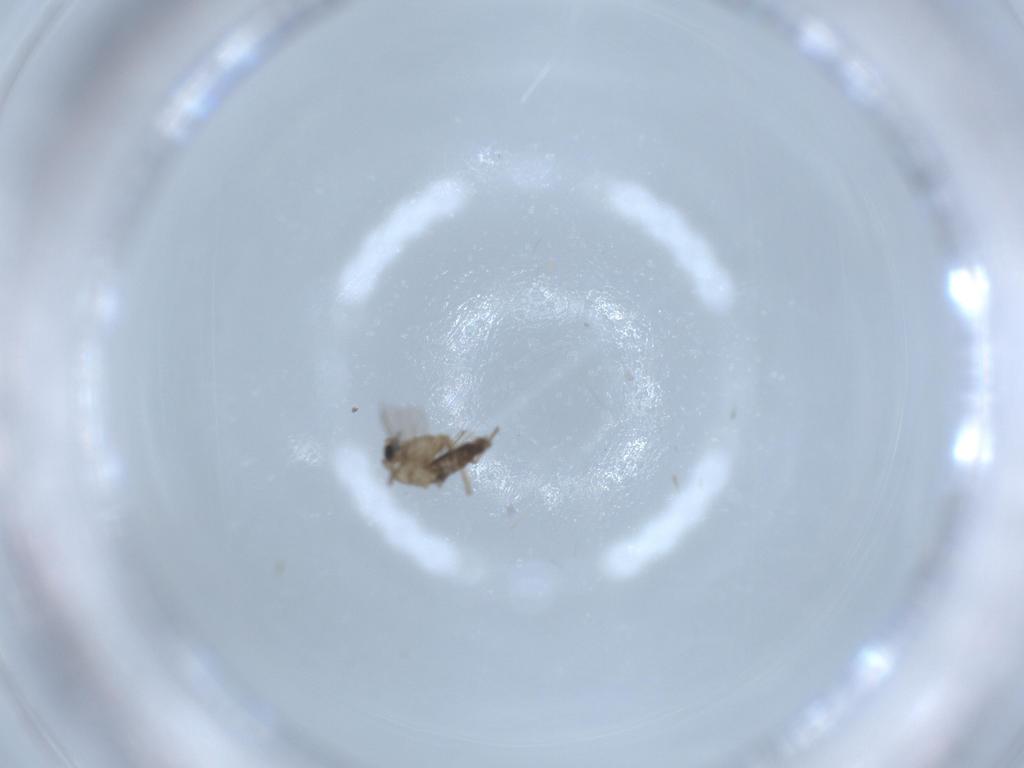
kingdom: Animalia
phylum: Arthropoda
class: Insecta
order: Diptera
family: Chironomidae
